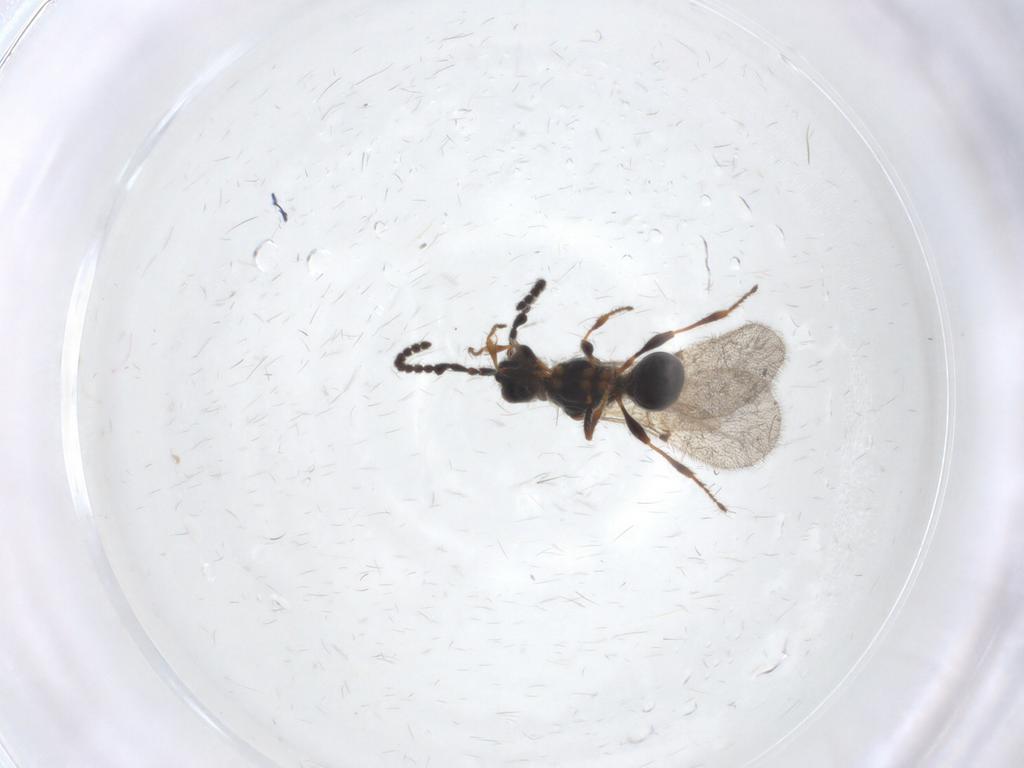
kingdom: Animalia
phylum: Arthropoda
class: Insecta
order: Hymenoptera
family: Diapriidae
